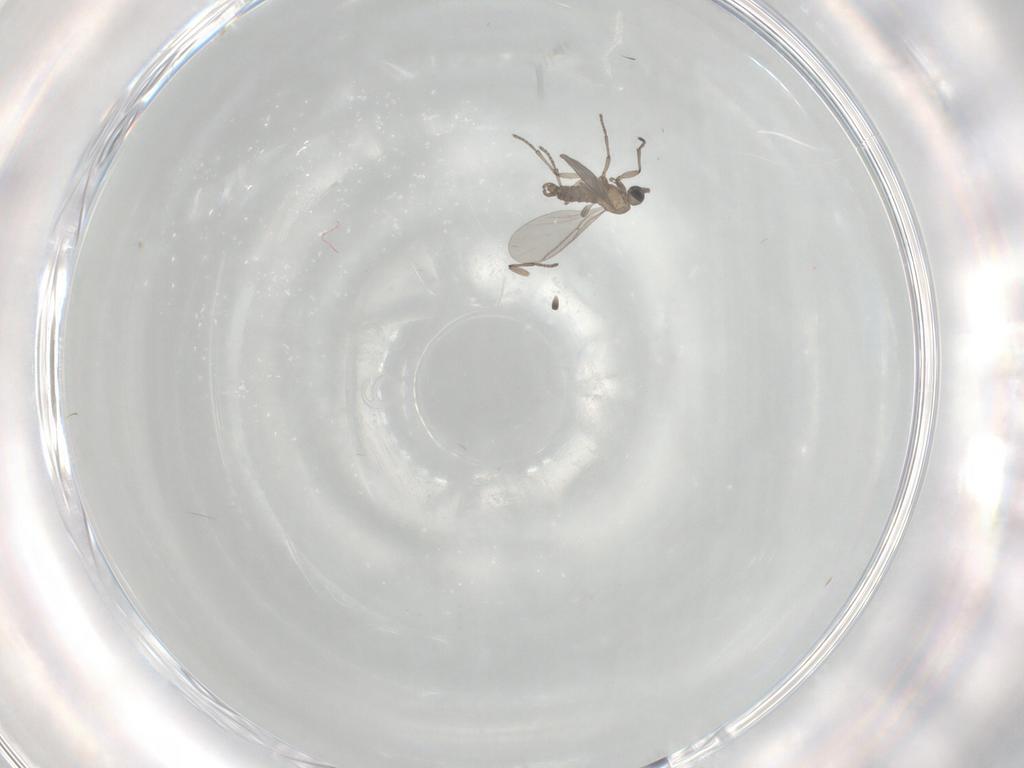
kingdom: Animalia
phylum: Arthropoda
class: Insecta
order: Diptera
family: Sciaridae
